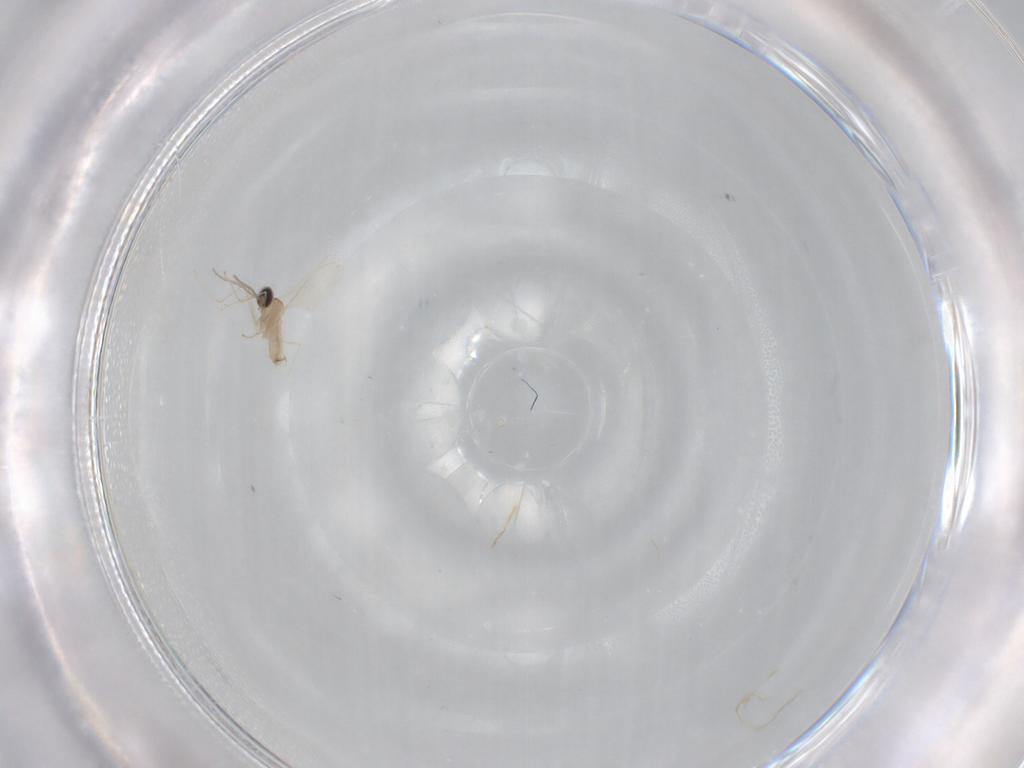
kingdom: Animalia
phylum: Arthropoda
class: Insecta
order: Diptera
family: Cecidomyiidae
